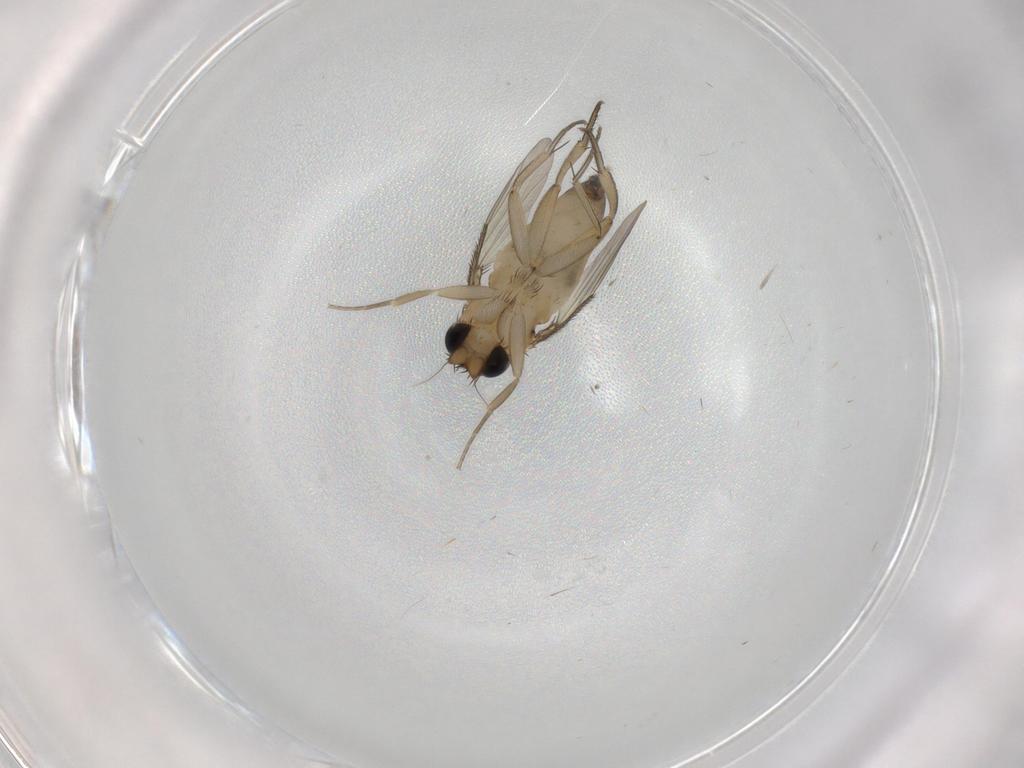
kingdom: Animalia
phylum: Arthropoda
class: Insecta
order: Diptera
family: Phoridae
